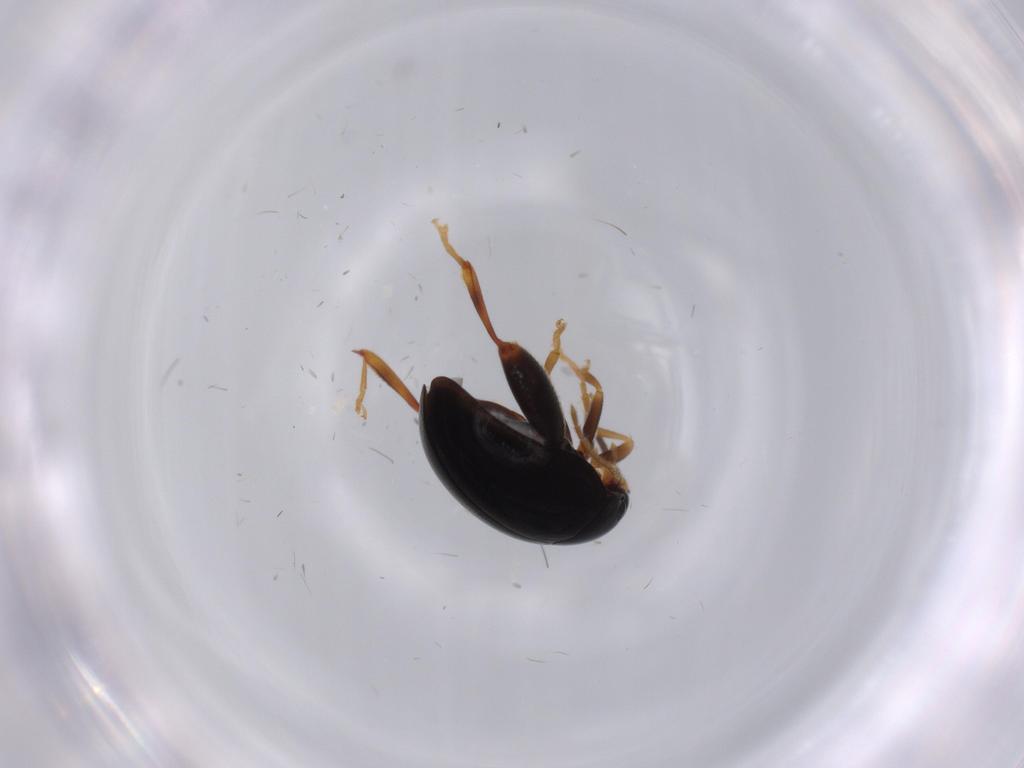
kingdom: Animalia
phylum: Arthropoda
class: Insecta
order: Coleoptera
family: Chrysomelidae
